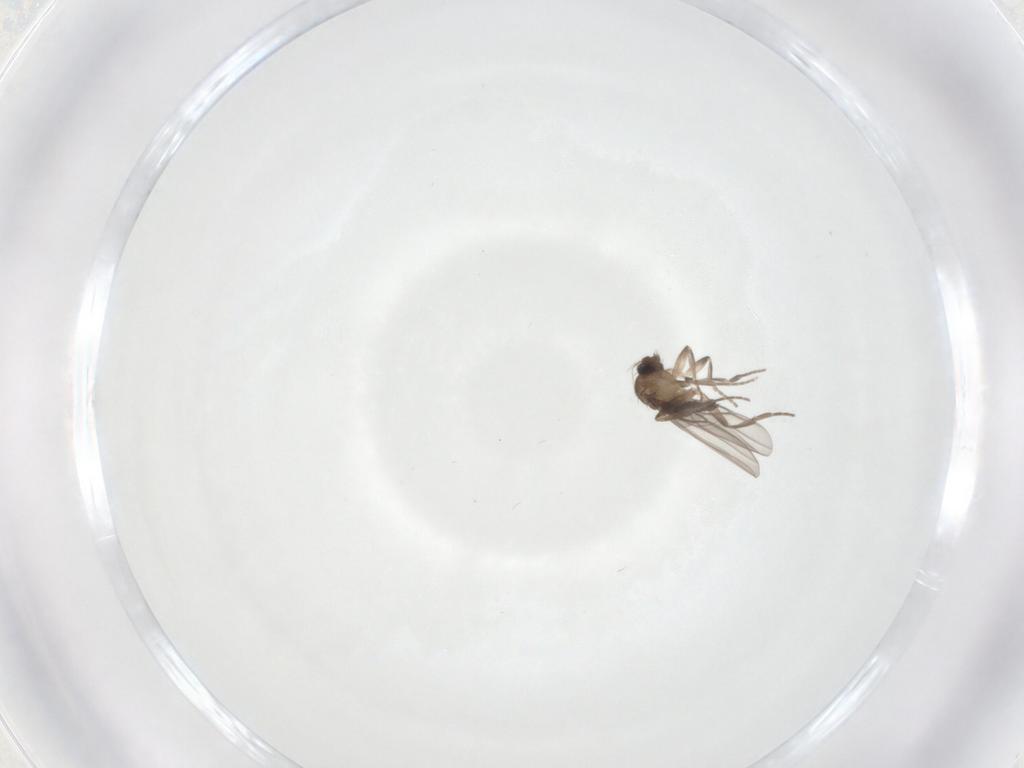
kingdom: Animalia
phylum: Arthropoda
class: Insecta
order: Diptera
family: Phoridae
